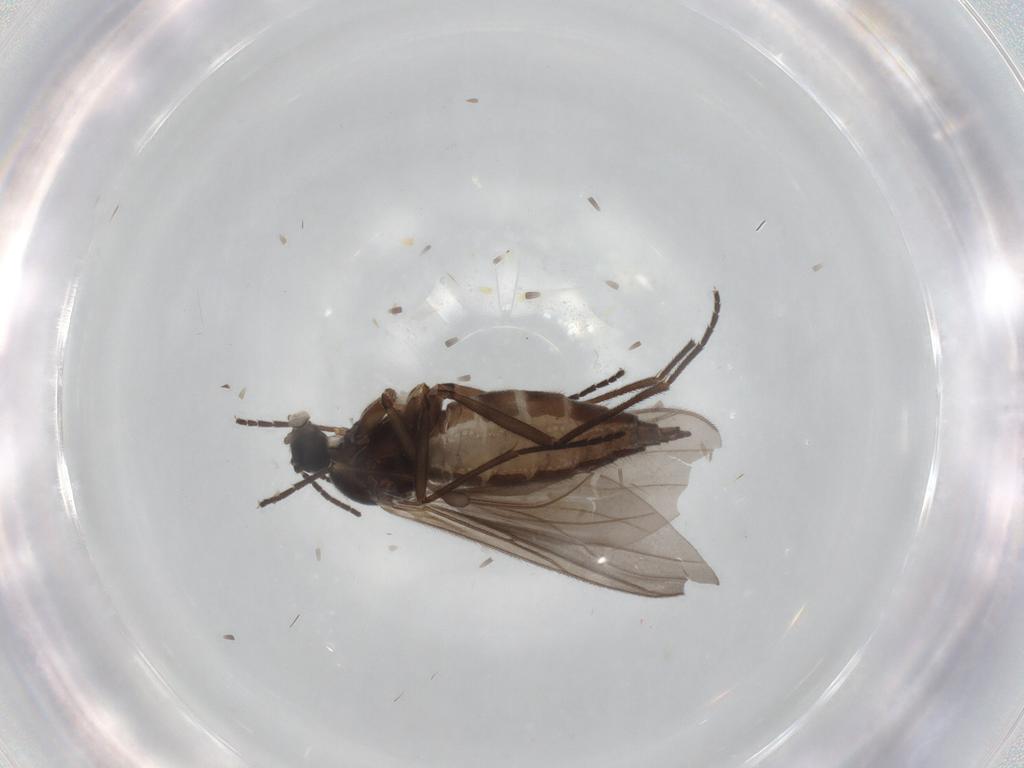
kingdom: Animalia
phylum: Arthropoda
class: Insecta
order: Diptera
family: Sciaridae
